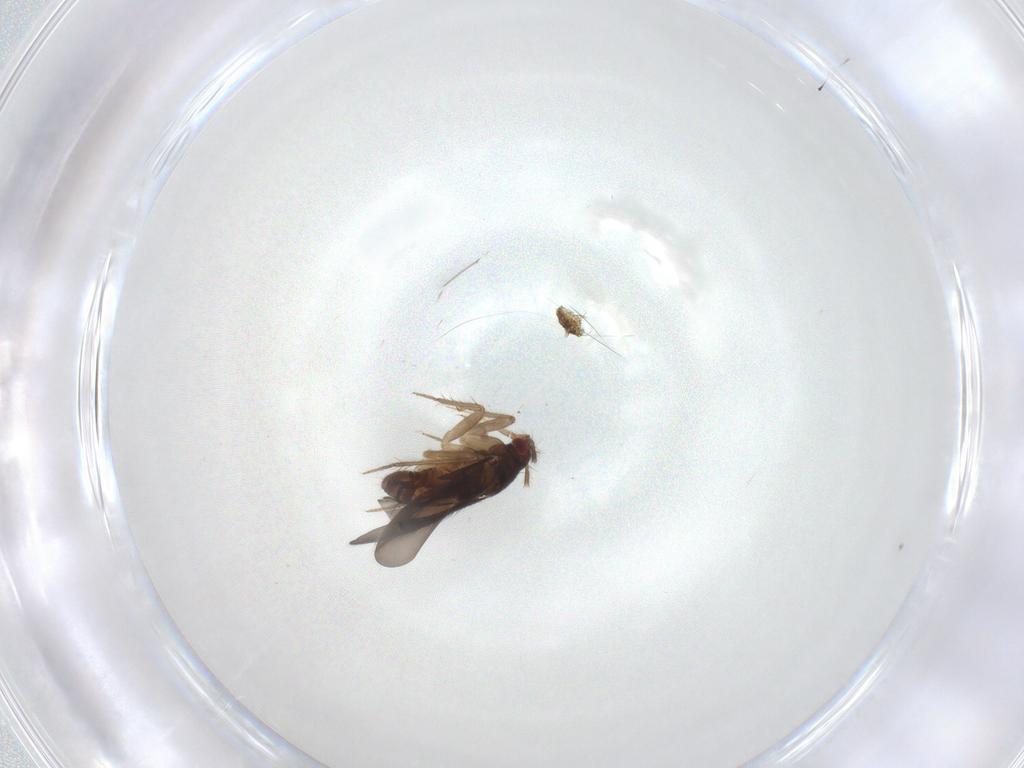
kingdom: Animalia
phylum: Arthropoda
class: Insecta
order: Hemiptera
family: Ceratocombidae
